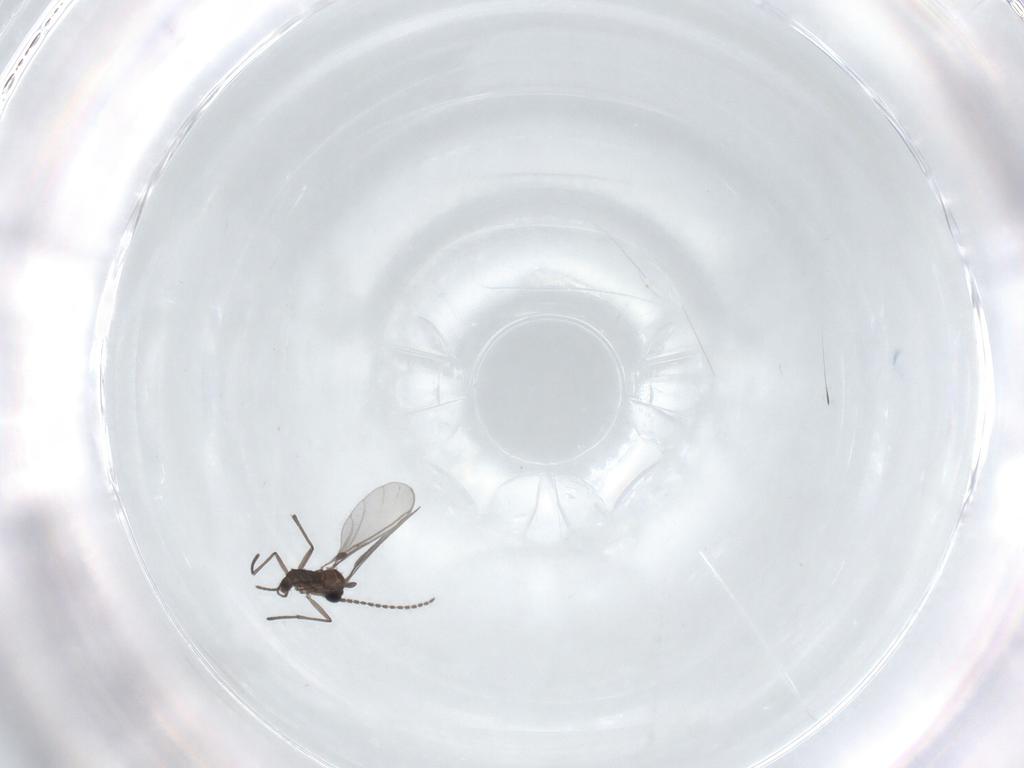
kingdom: Animalia
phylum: Arthropoda
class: Insecta
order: Diptera
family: Sciaridae
